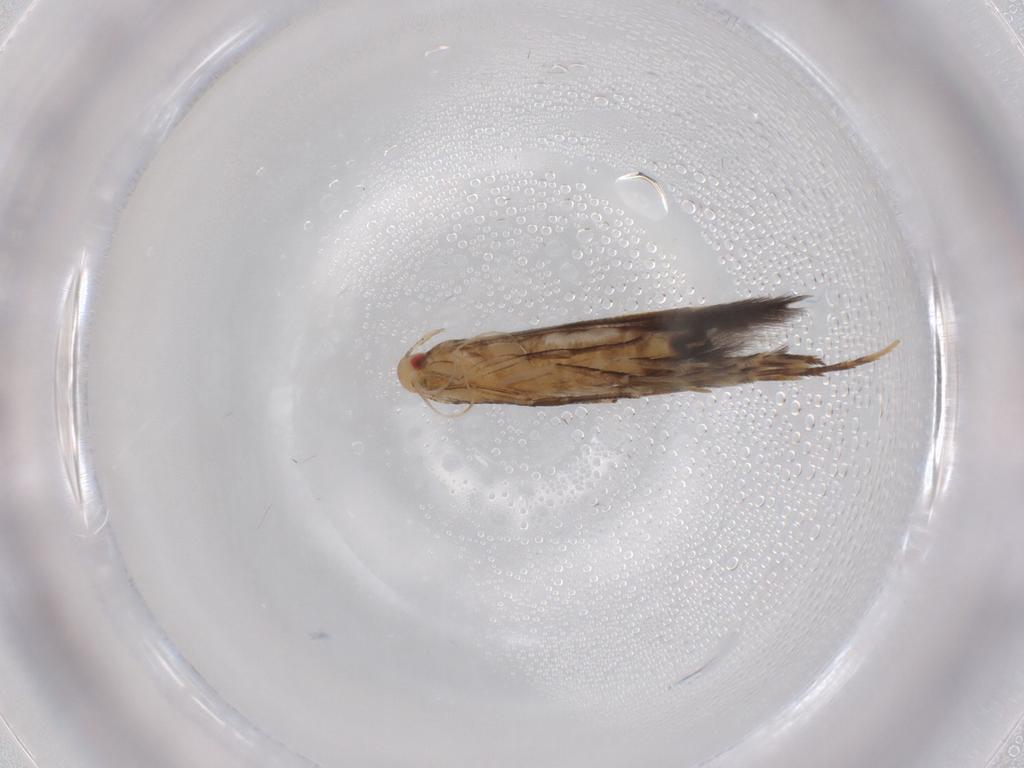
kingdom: Animalia
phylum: Arthropoda
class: Insecta
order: Lepidoptera
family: Cosmopterigidae
